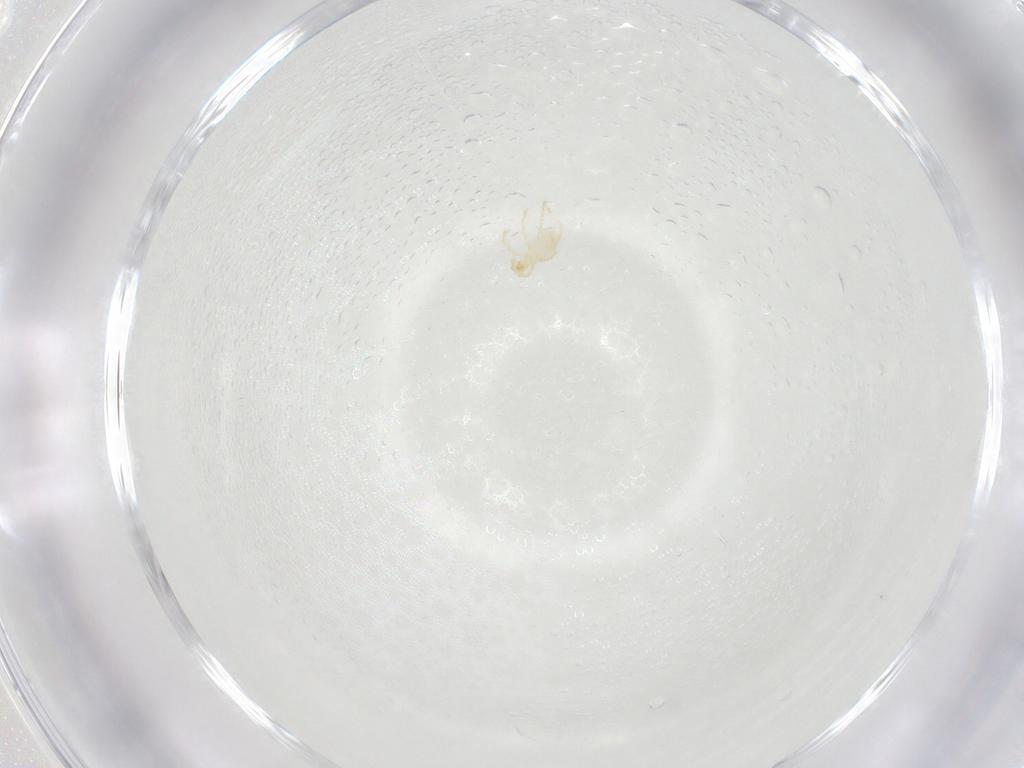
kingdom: Animalia
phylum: Arthropoda
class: Arachnida
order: Trombidiformes
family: Erythraeidae
